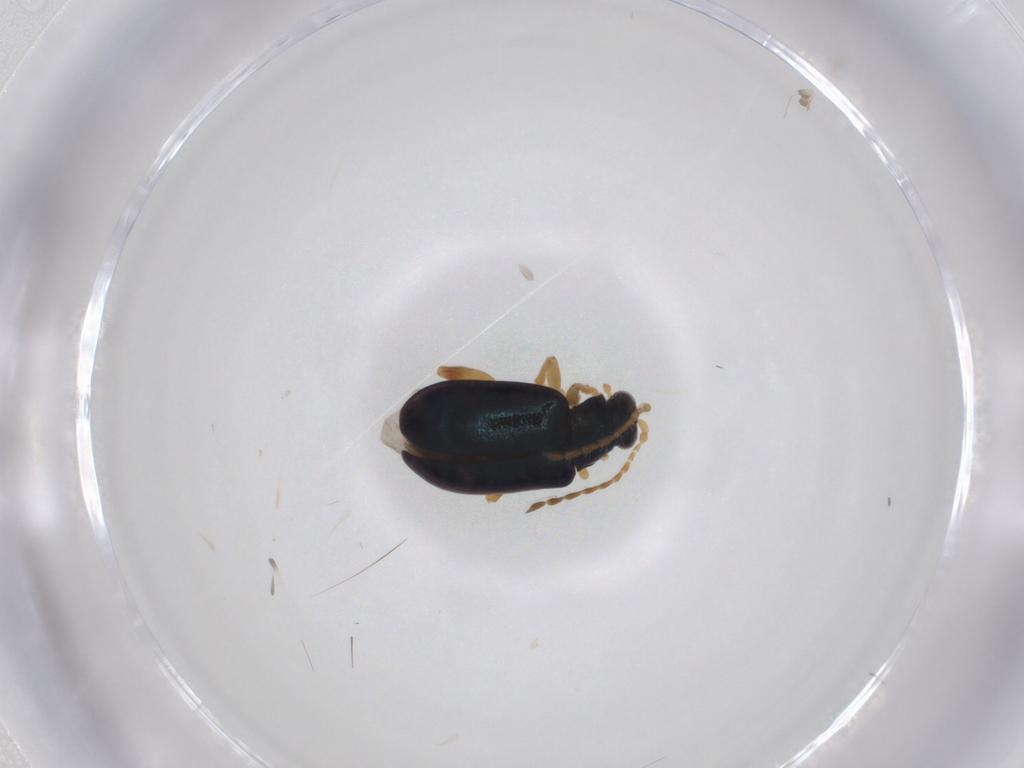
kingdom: Animalia
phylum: Arthropoda
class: Insecta
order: Coleoptera
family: Chrysomelidae
